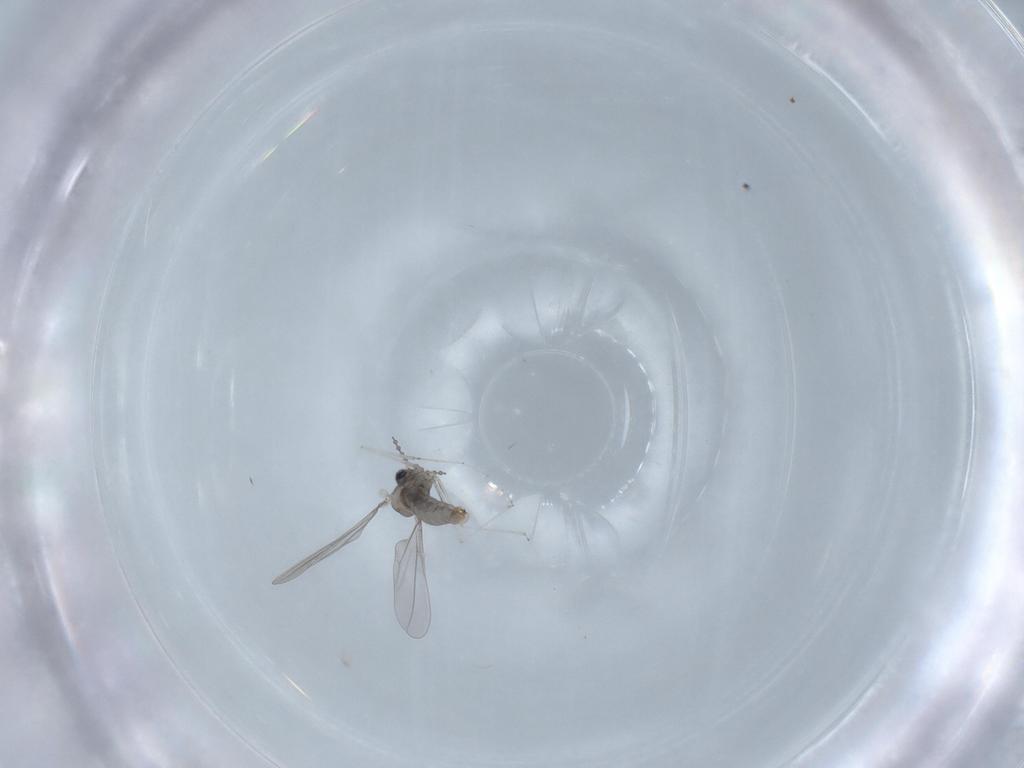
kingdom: Animalia
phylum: Arthropoda
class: Insecta
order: Diptera
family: Cecidomyiidae
